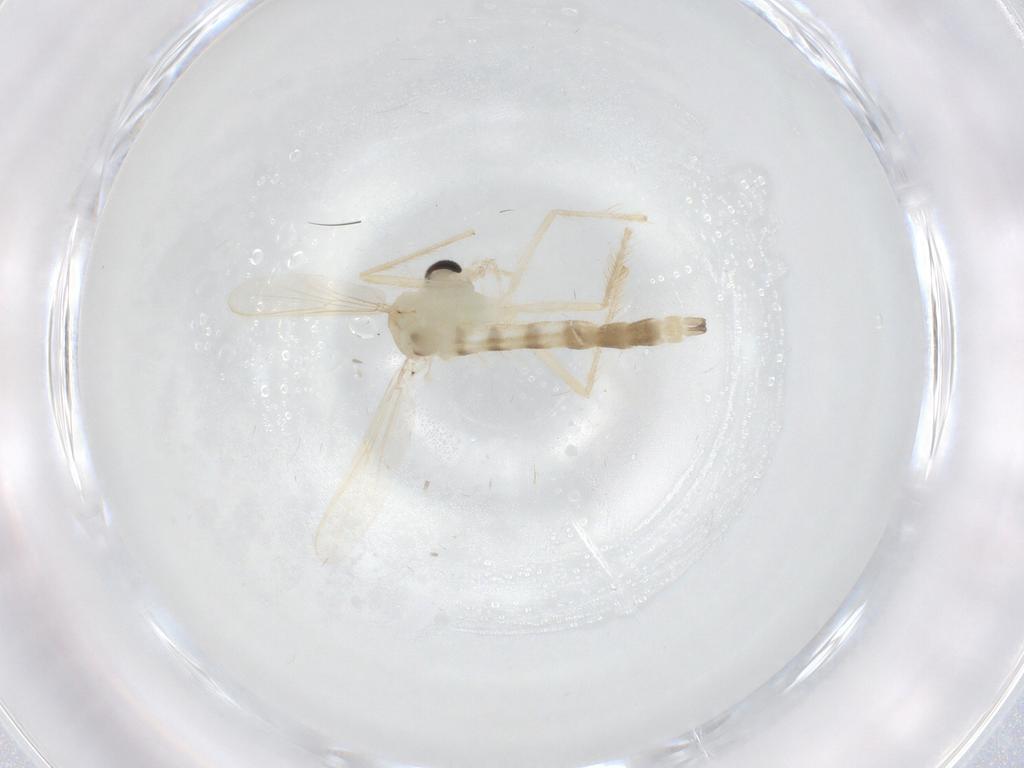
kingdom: Animalia
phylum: Arthropoda
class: Insecta
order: Diptera
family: Chironomidae
